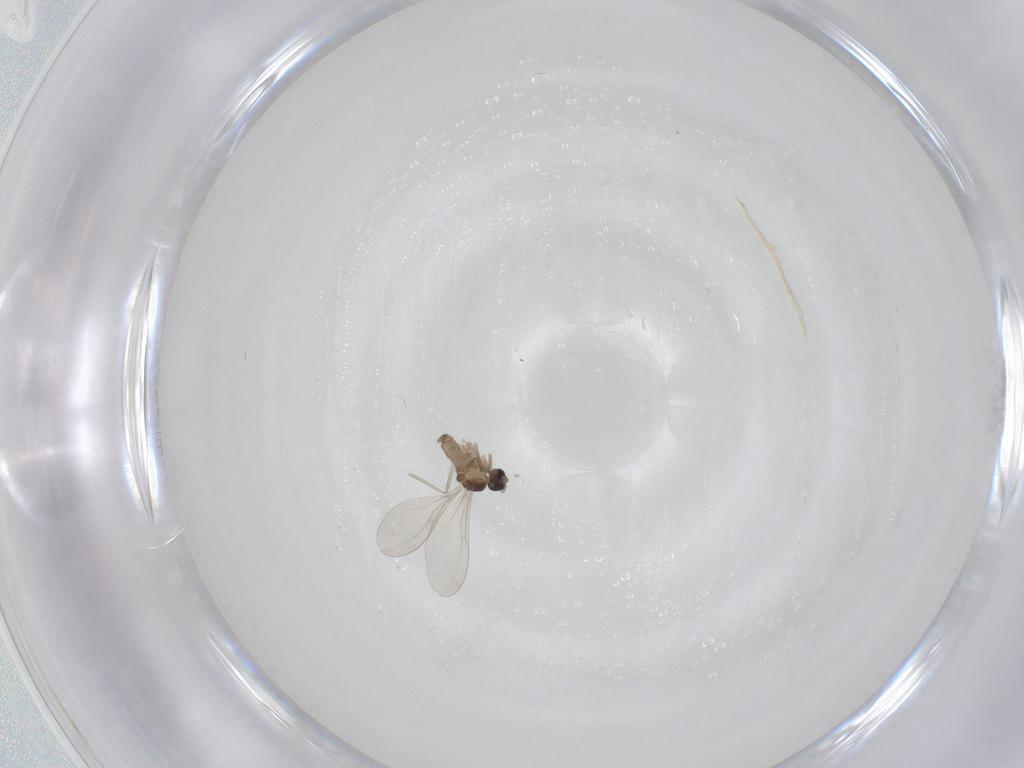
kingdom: Animalia
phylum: Arthropoda
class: Insecta
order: Diptera
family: Cecidomyiidae
